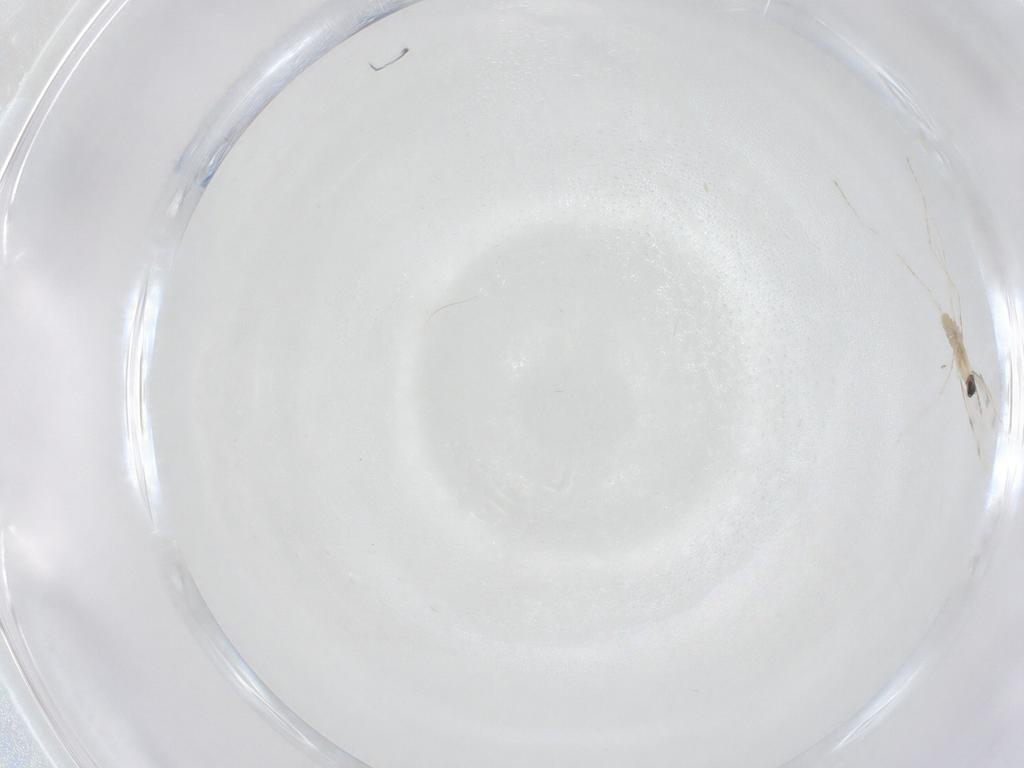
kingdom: Animalia
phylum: Arthropoda
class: Insecta
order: Diptera
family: Cecidomyiidae
